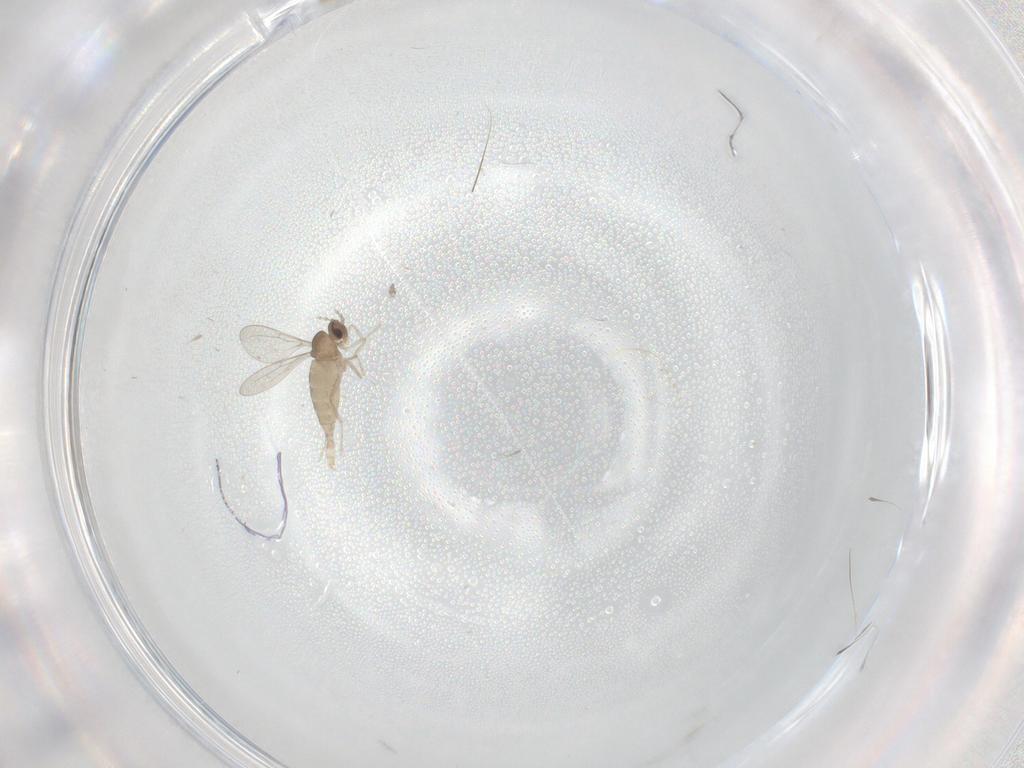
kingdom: Animalia
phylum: Arthropoda
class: Insecta
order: Diptera
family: Cecidomyiidae
